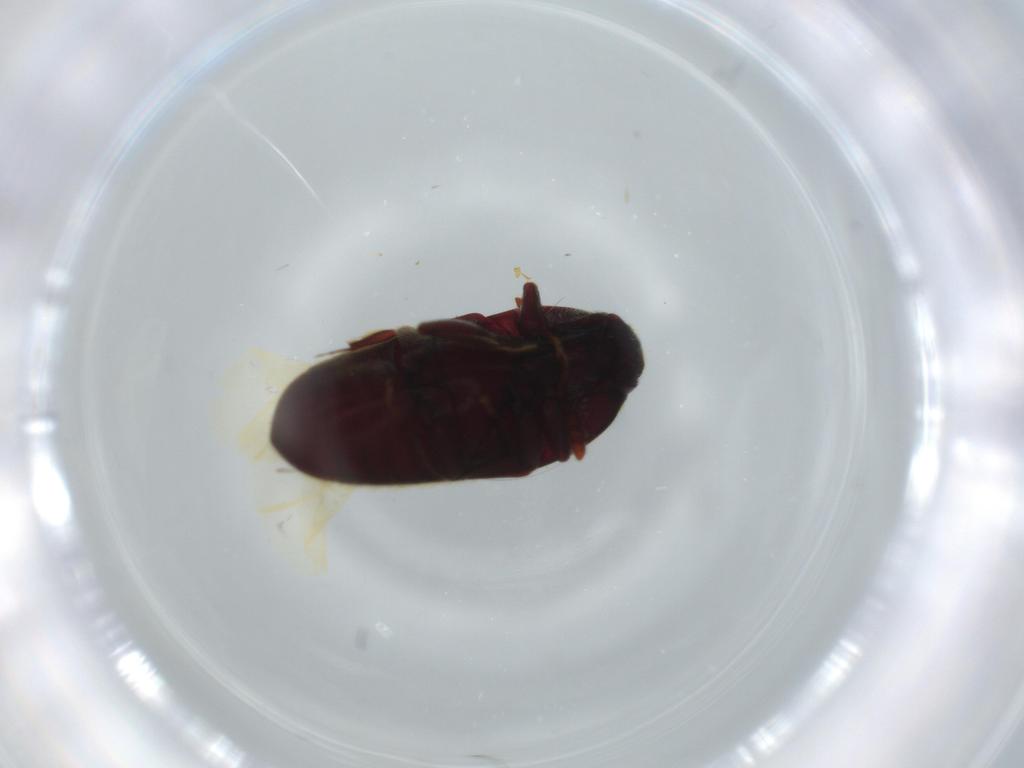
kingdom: Animalia
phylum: Arthropoda
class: Insecta
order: Coleoptera
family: Throscidae
